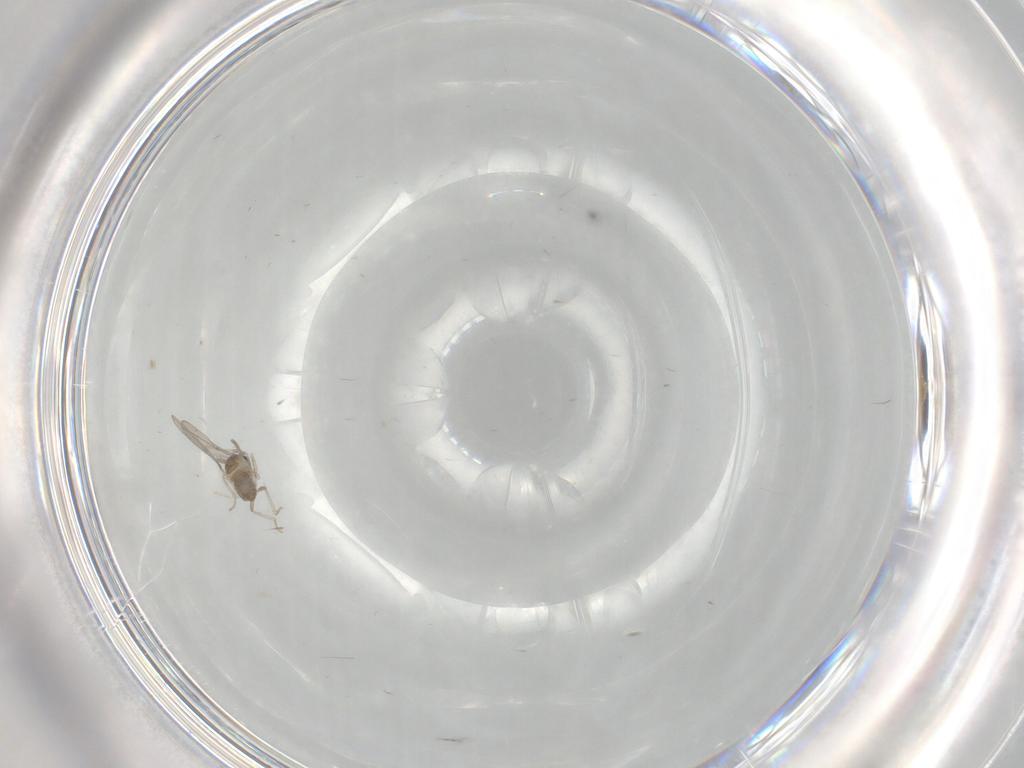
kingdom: Animalia
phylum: Arthropoda
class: Insecta
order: Diptera
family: Cecidomyiidae
